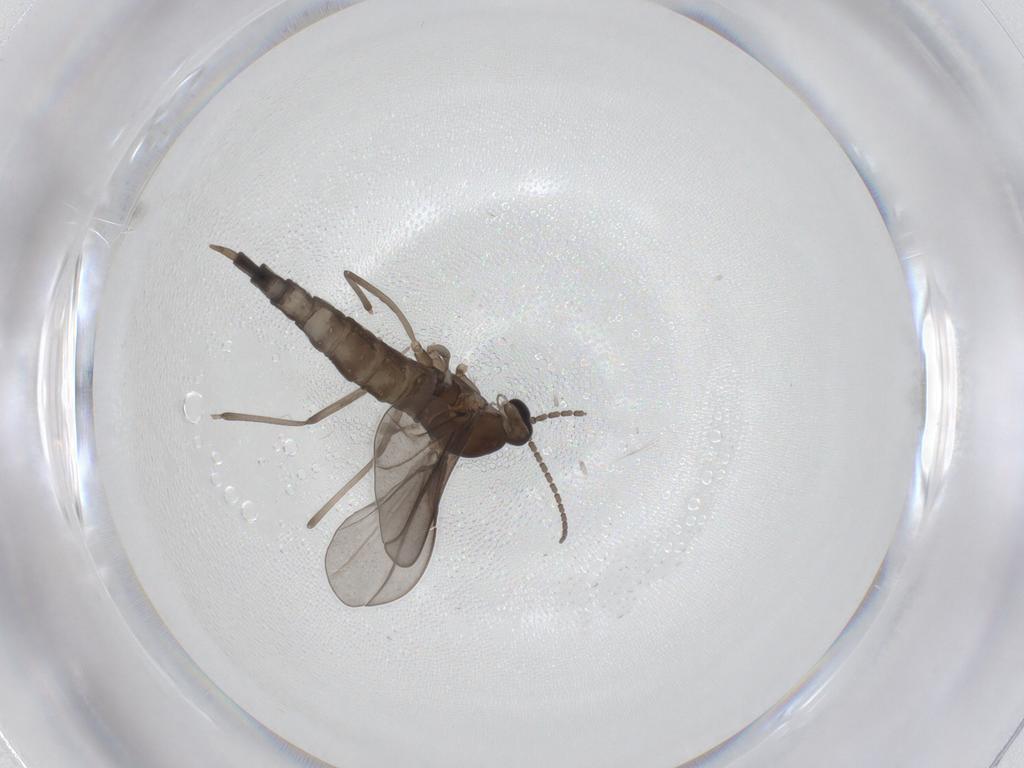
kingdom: Animalia
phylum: Arthropoda
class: Insecta
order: Diptera
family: Cecidomyiidae
